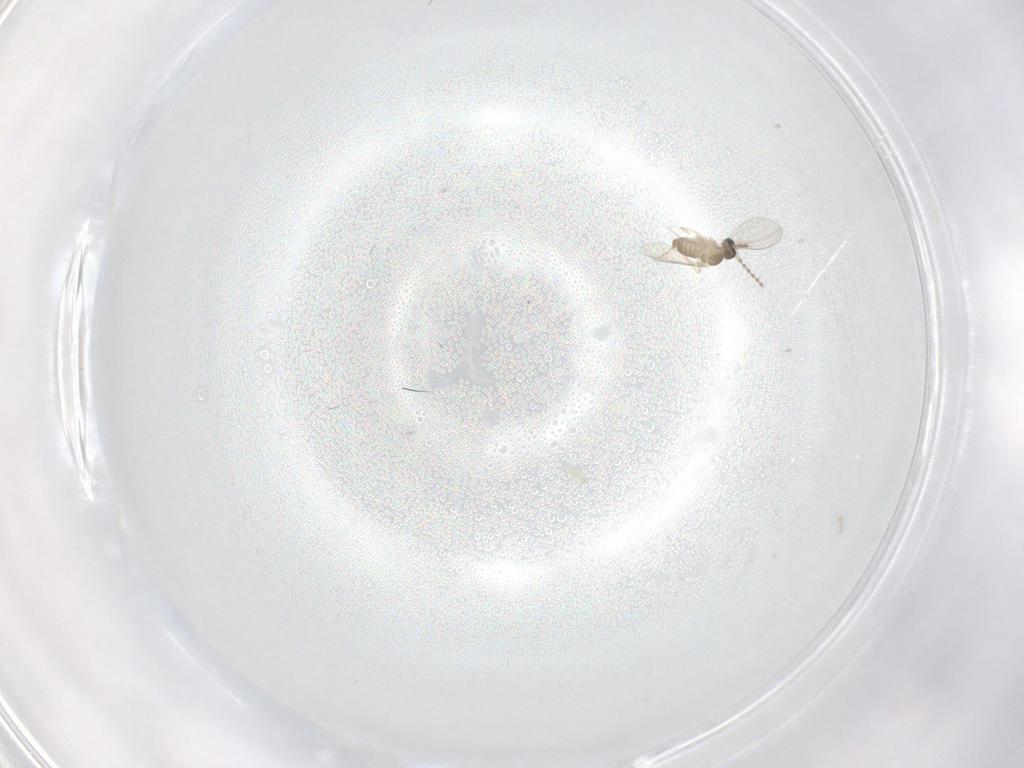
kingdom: Animalia
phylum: Arthropoda
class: Insecta
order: Diptera
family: Cecidomyiidae
